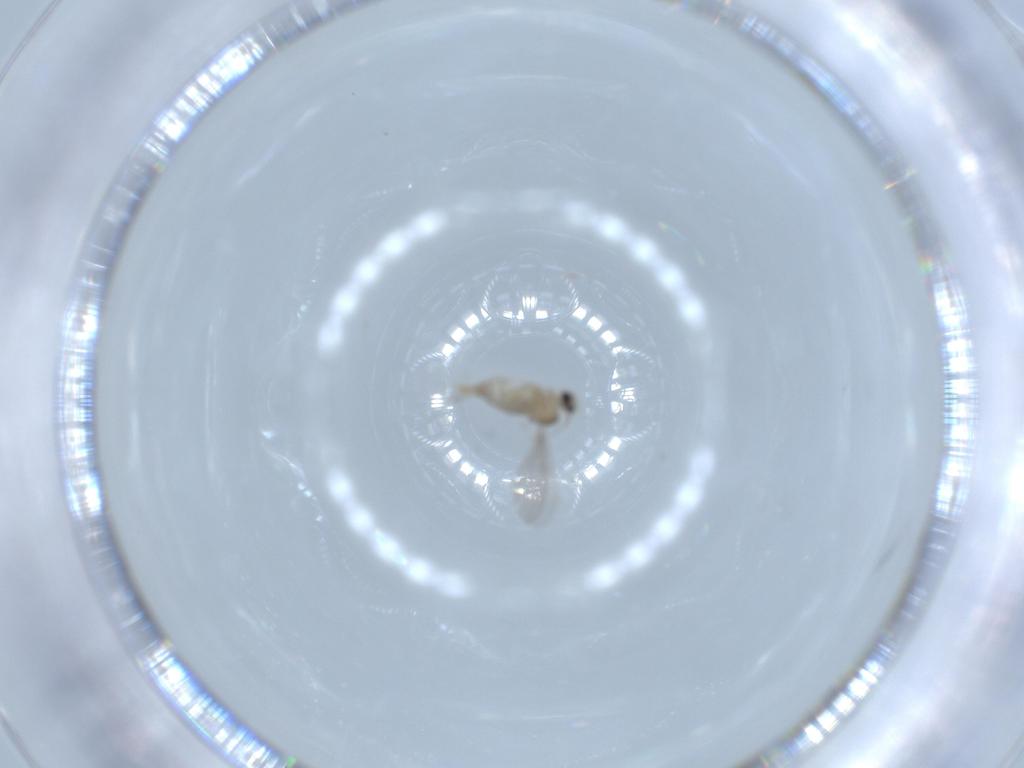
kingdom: Animalia
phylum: Arthropoda
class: Insecta
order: Diptera
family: Cecidomyiidae
